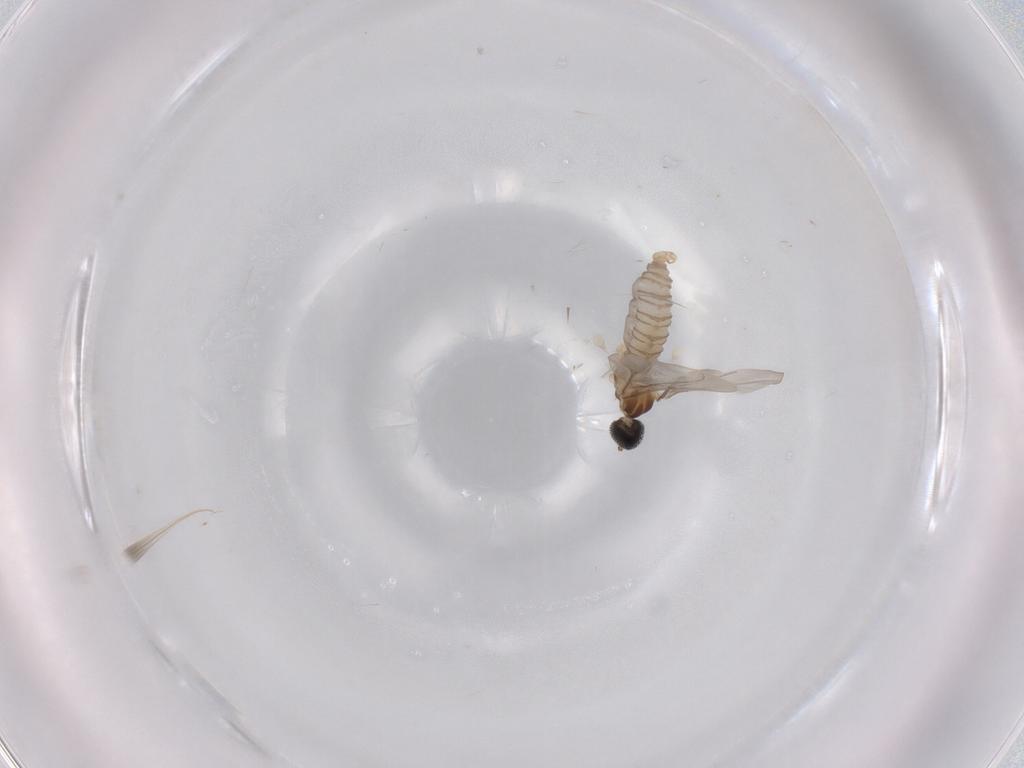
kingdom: Animalia
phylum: Arthropoda
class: Insecta
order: Diptera
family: Cecidomyiidae
